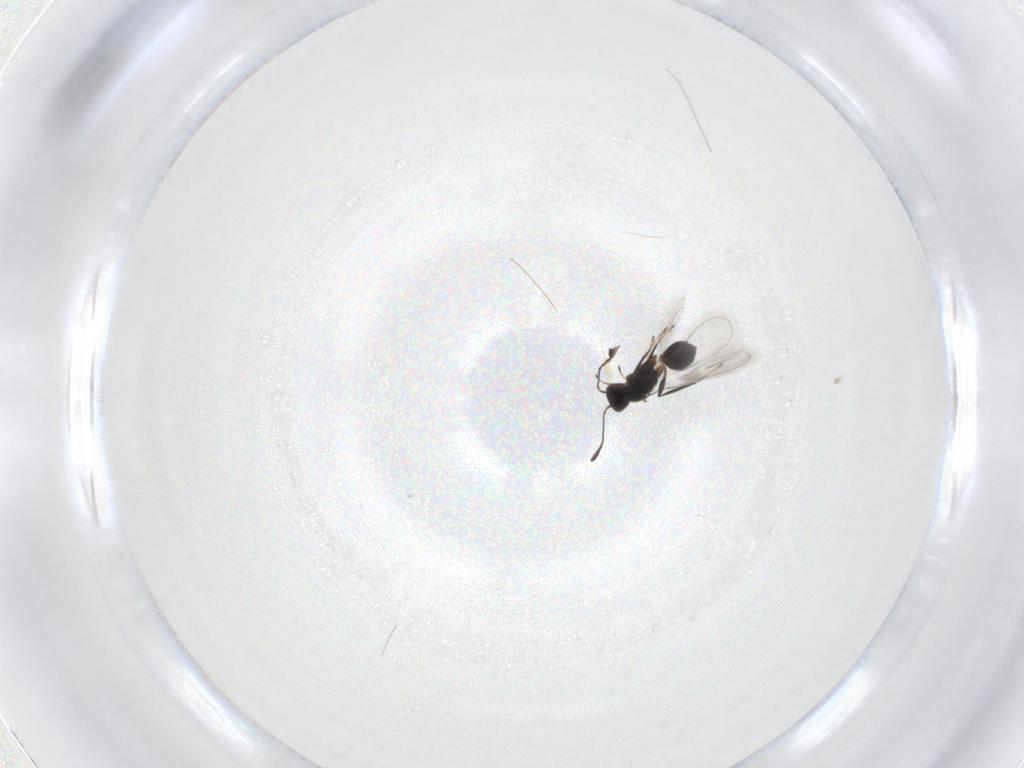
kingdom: Animalia
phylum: Arthropoda
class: Insecta
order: Hymenoptera
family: Mymaridae
